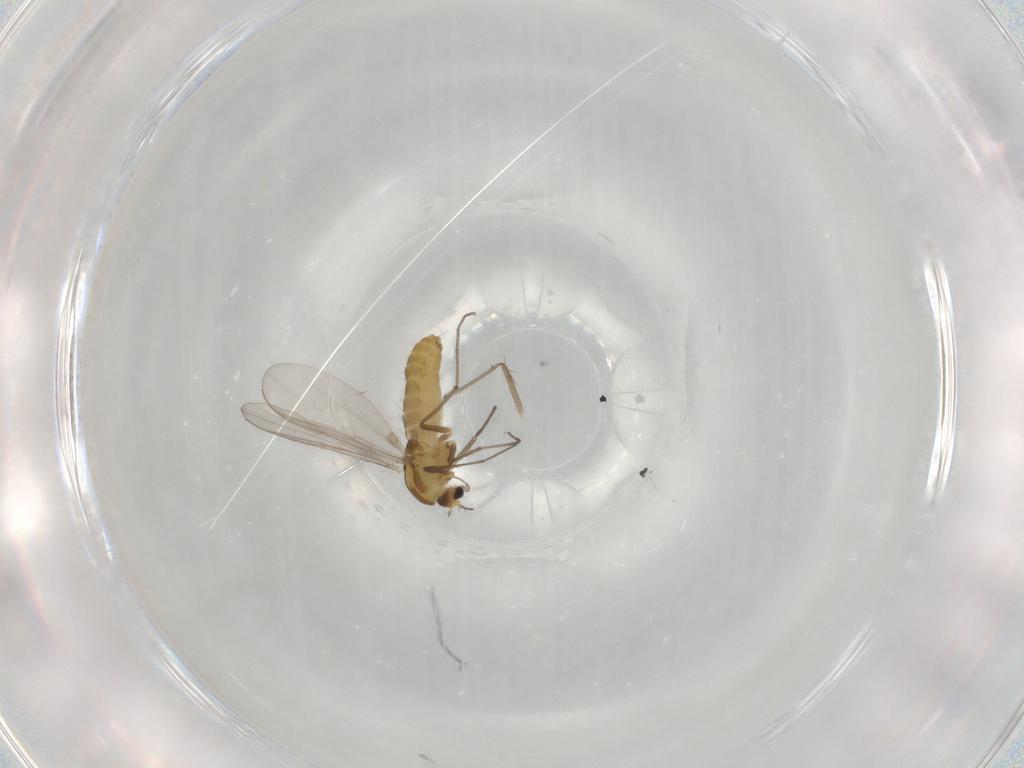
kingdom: Animalia
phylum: Arthropoda
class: Insecta
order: Diptera
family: Chironomidae
